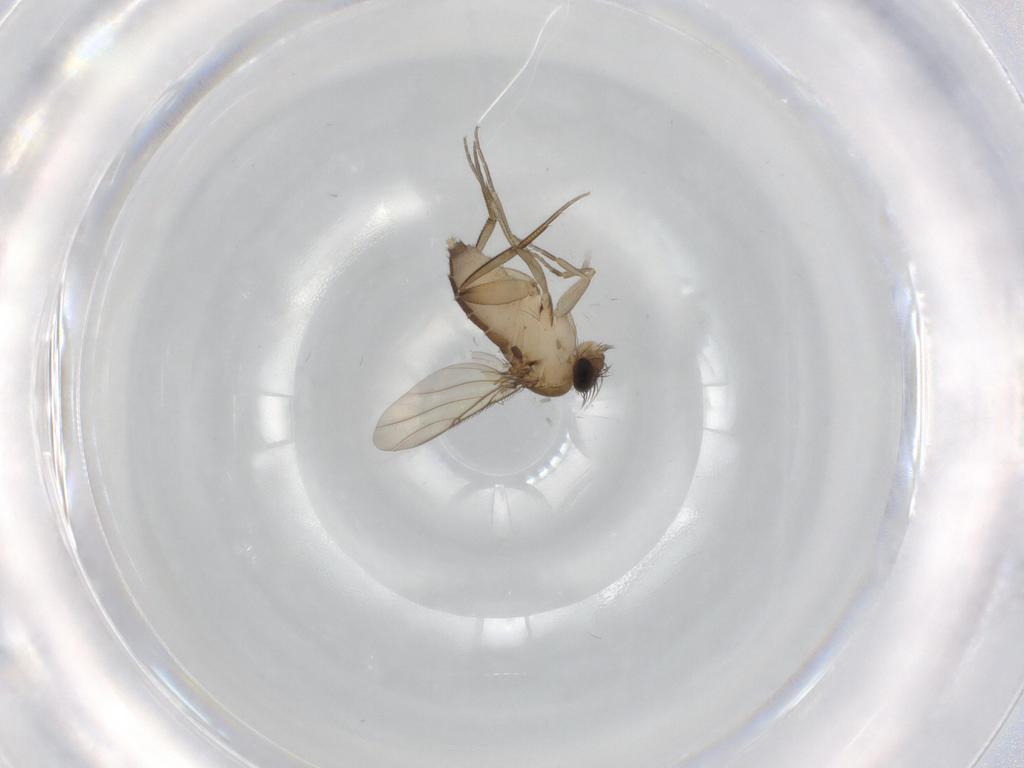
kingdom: Animalia
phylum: Arthropoda
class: Insecta
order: Diptera
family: Phoridae
